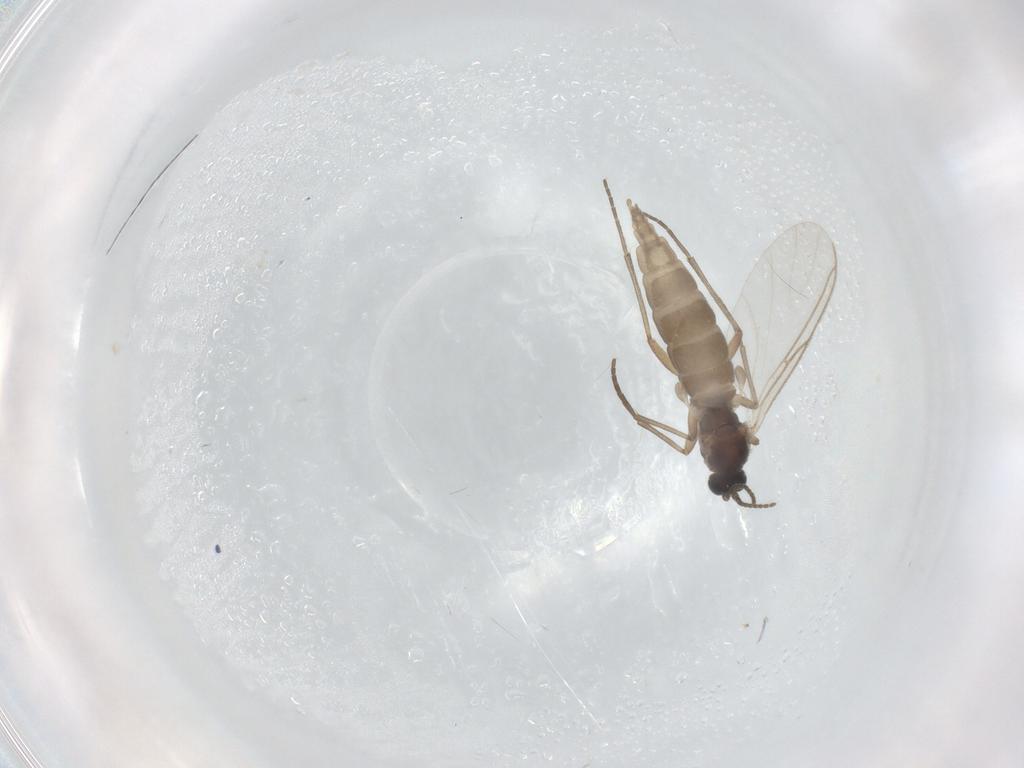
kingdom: Animalia
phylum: Arthropoda
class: Insecta
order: Diptera
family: Sciaridae
